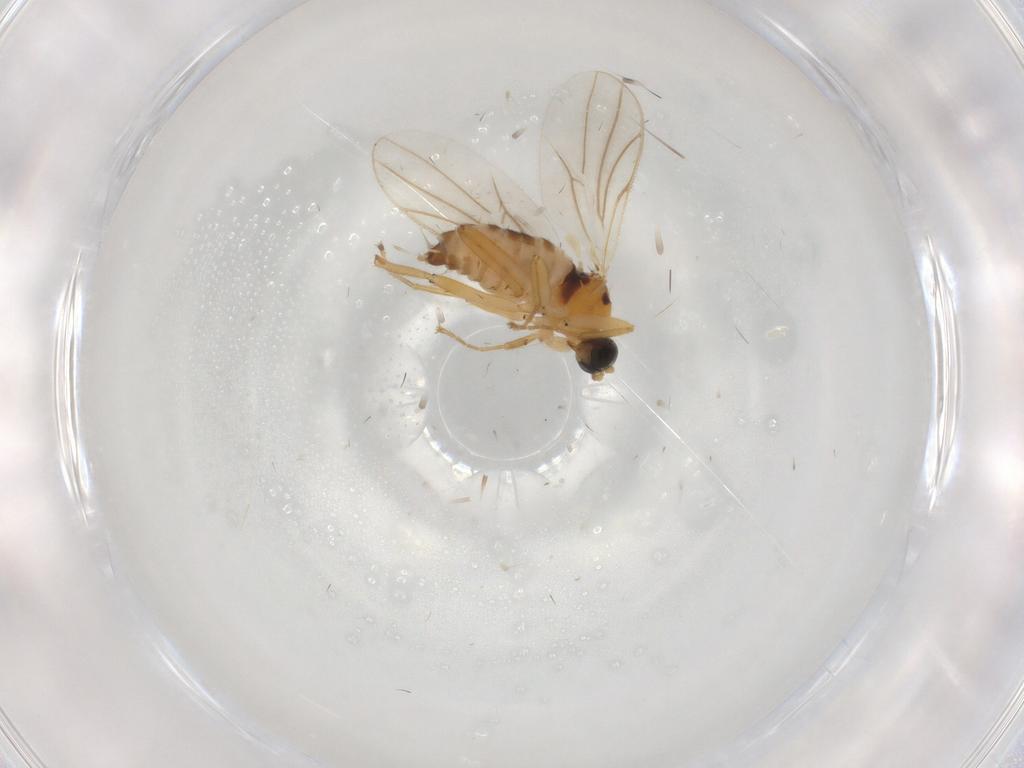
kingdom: Animalia
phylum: Arthropoda
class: Insecta
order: Diptera
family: Hybotidae
